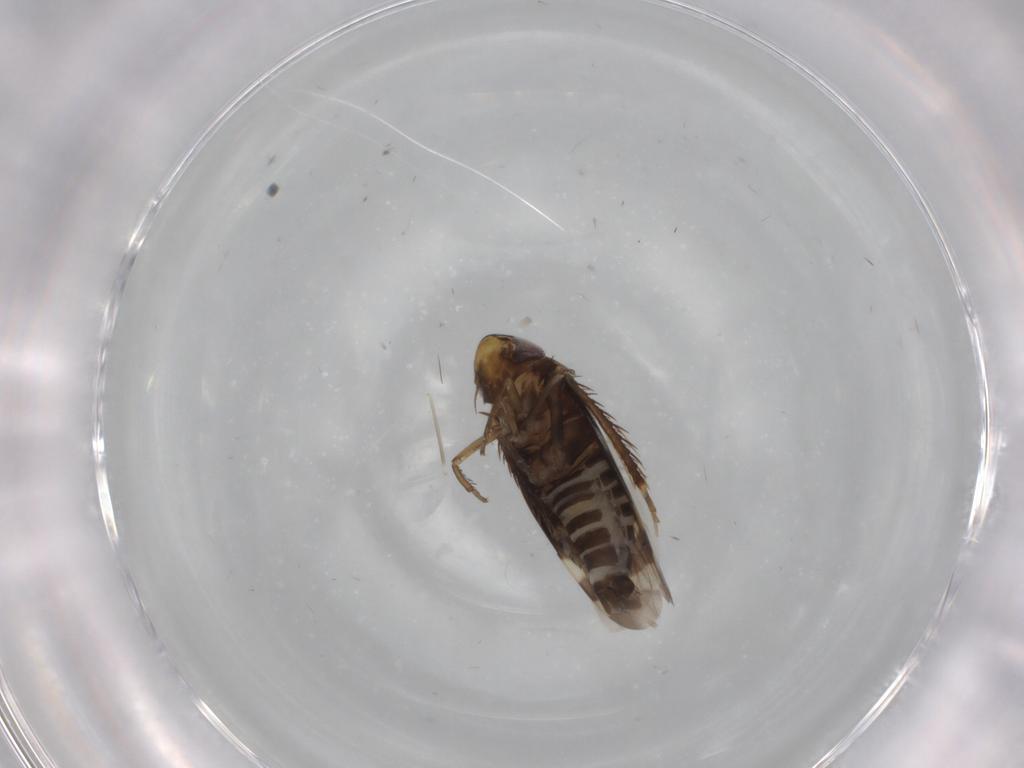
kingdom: Animalia
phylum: Arthropoda
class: Insecta
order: Hemiptera
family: Cicadellidae
